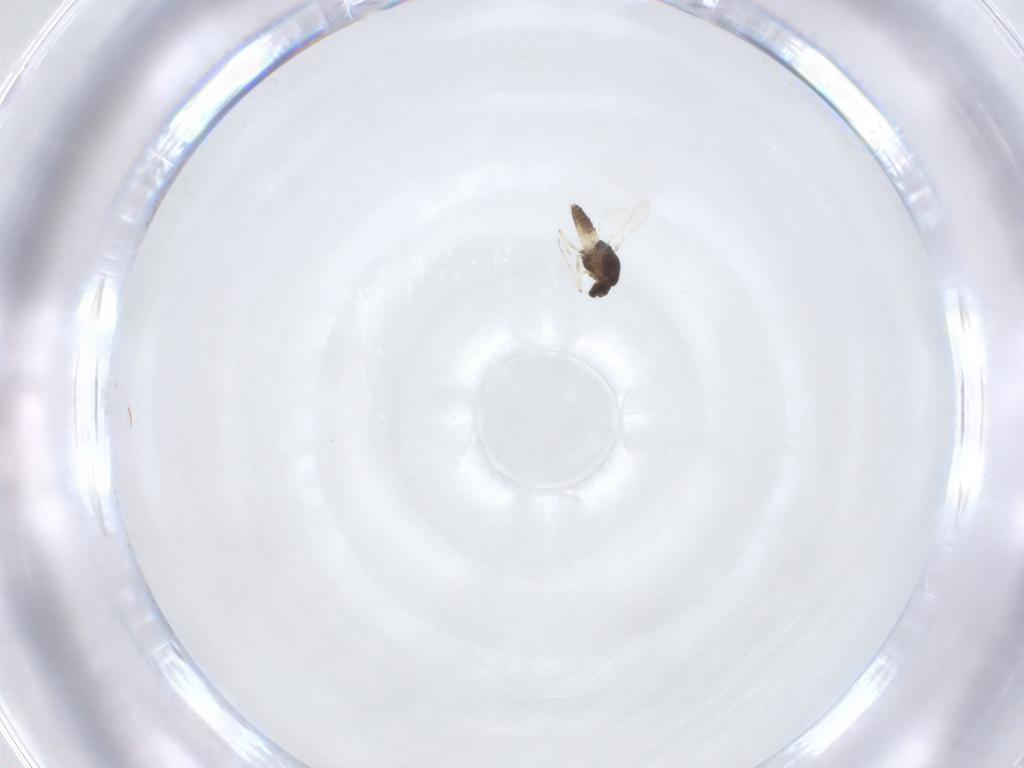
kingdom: Animalia
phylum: Arthropoda
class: Insecta
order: Diptera
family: Chironomidae
